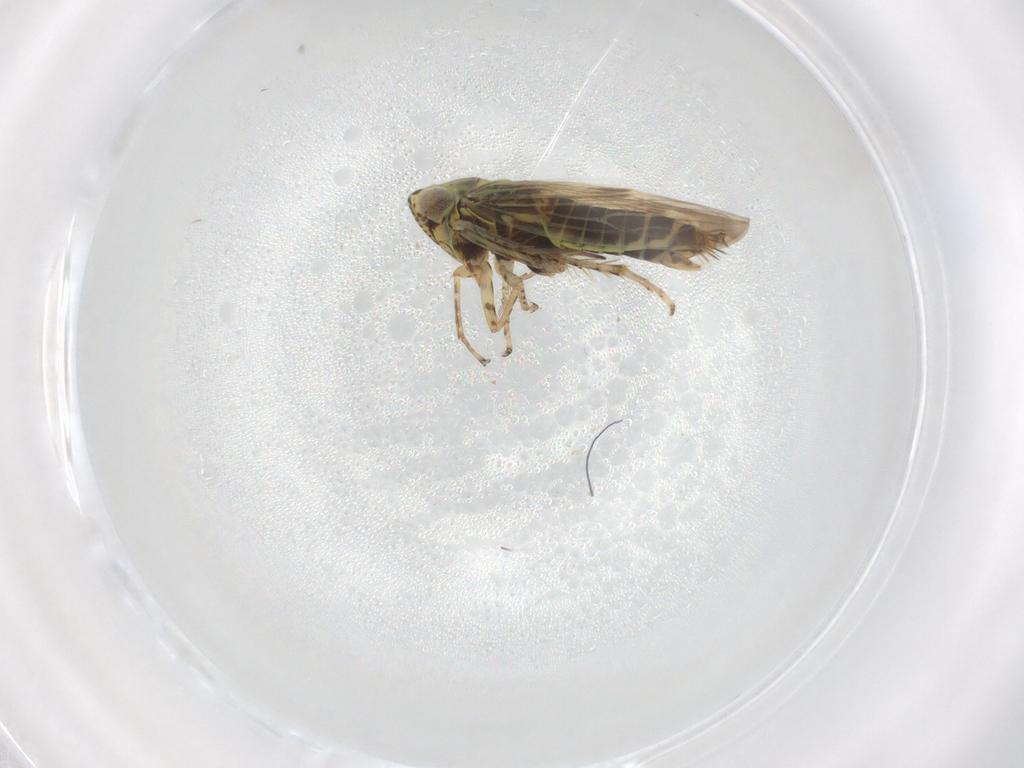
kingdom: Animalia
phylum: Arthropoda
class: Insecta
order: Hemiptera
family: Cicadellidae
